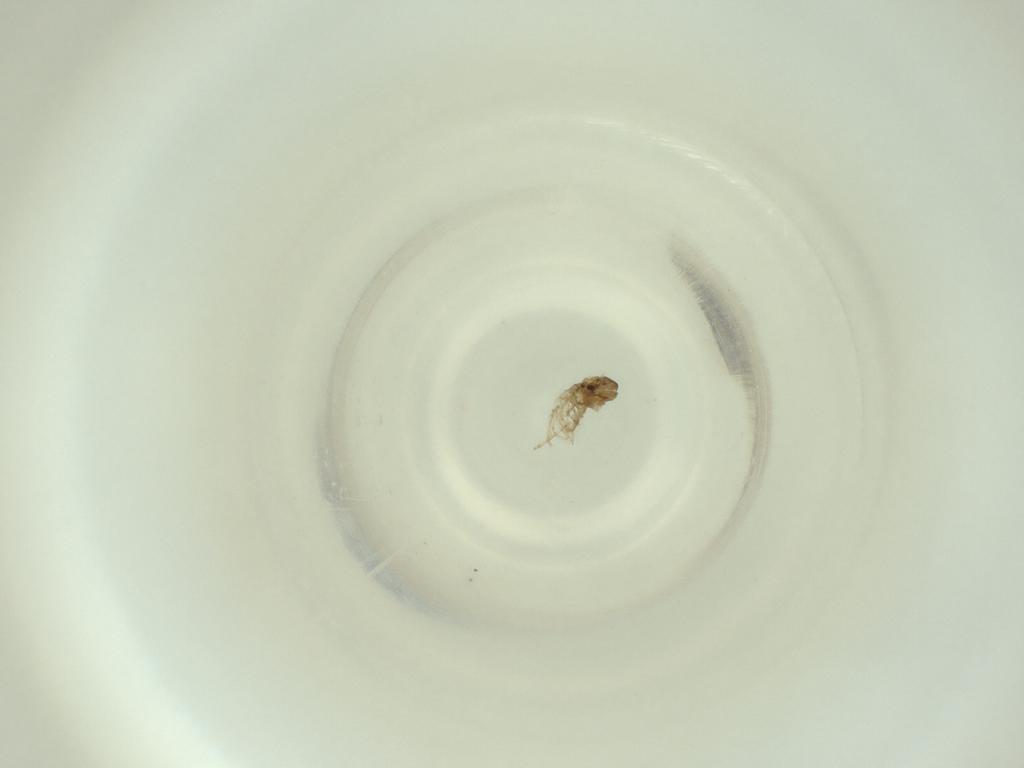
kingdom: Animalia
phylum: Arthropoda
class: Insecta
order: Diptera
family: Cecidomyiidae
